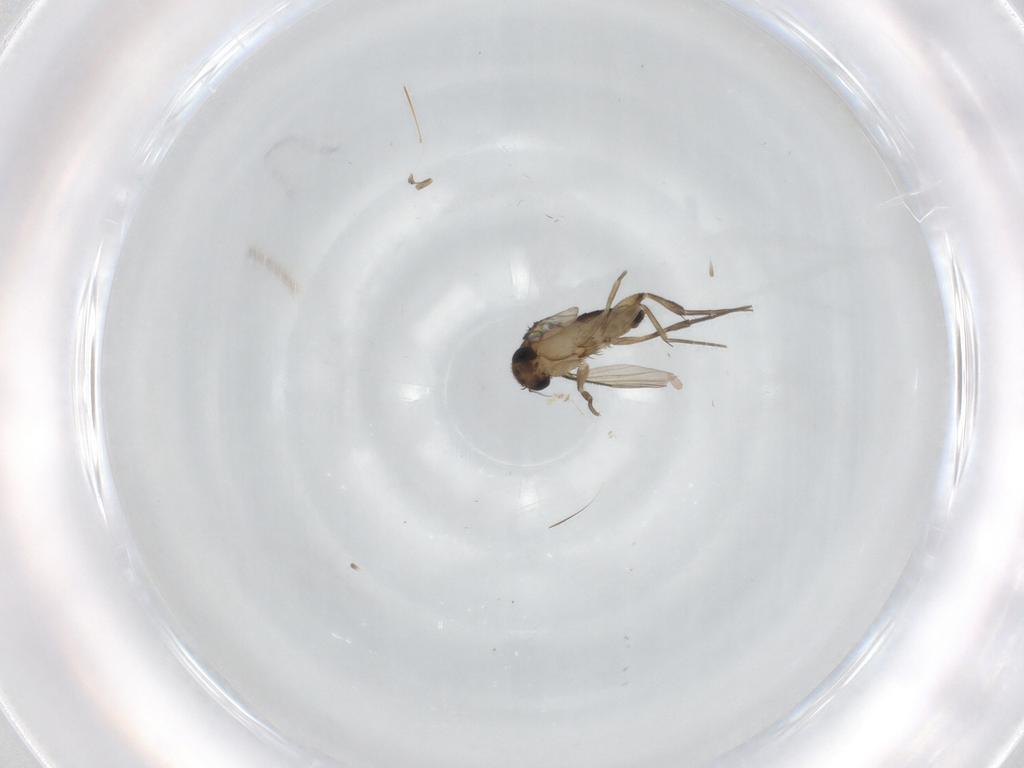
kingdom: Animalia
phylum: Arthropoda
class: Insecta
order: Diptera
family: Phoridae
